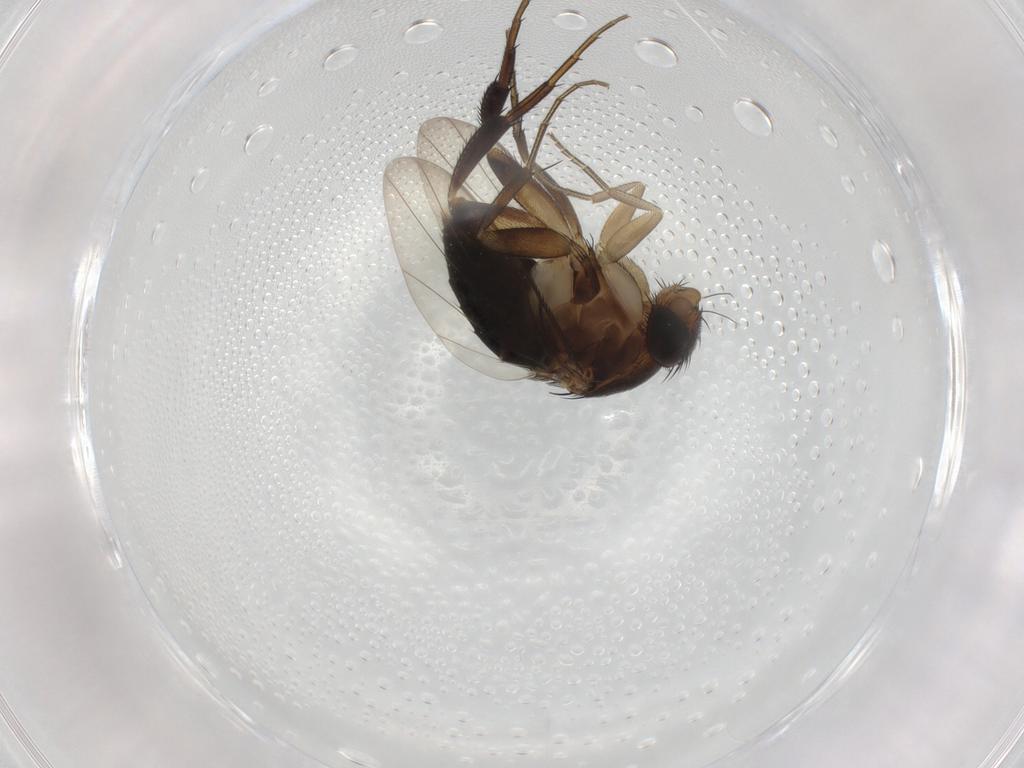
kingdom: Animalia
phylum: Arthropoda
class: Insecta
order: Diptera
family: Phoridae
